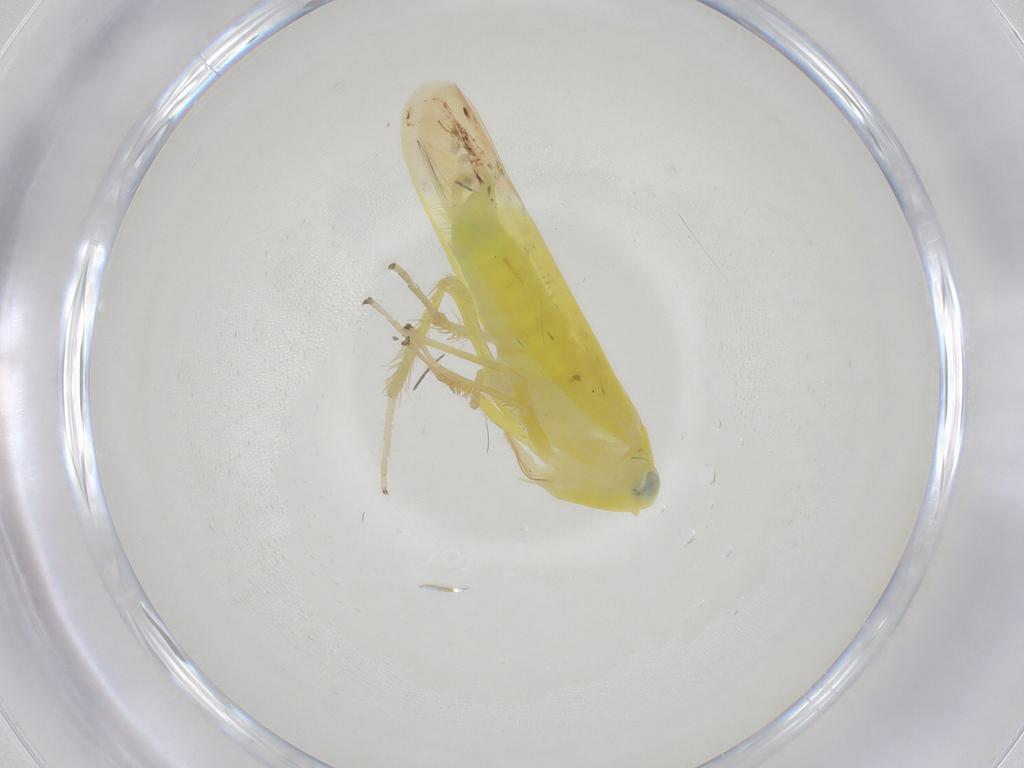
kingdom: Animalia
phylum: Arthropoda
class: Insecta
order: Hemiptera
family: Cicadellidae
